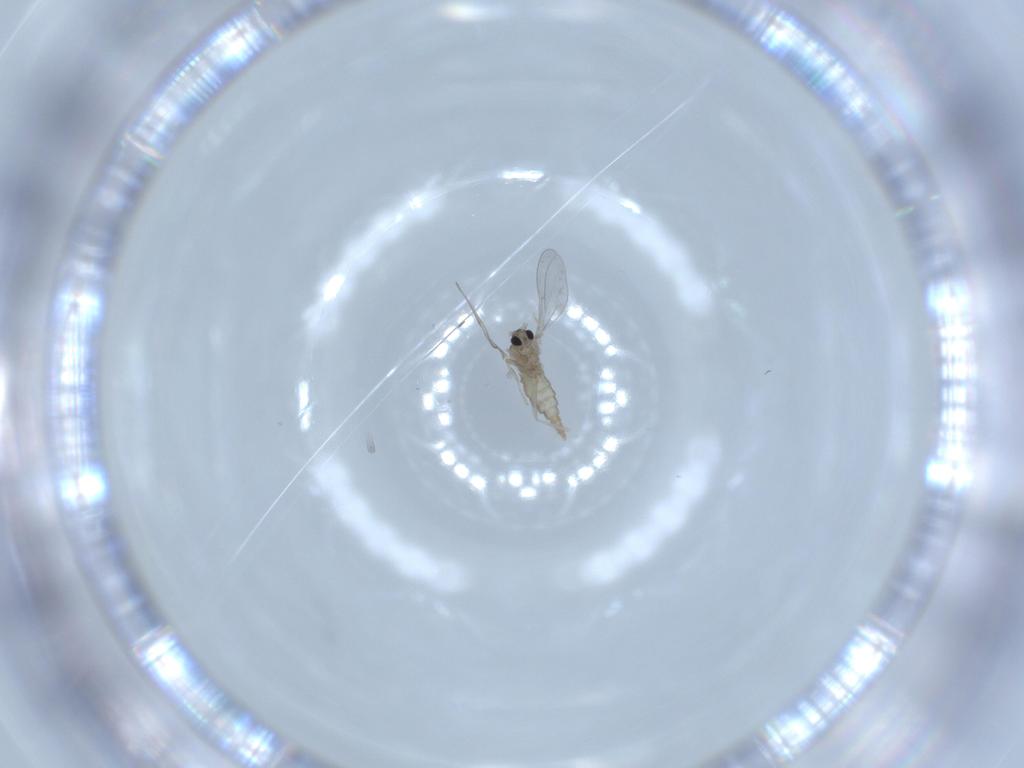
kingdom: Animalia
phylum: Arthropoda
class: Insecta
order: Diptera
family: Cecidomyiidae
